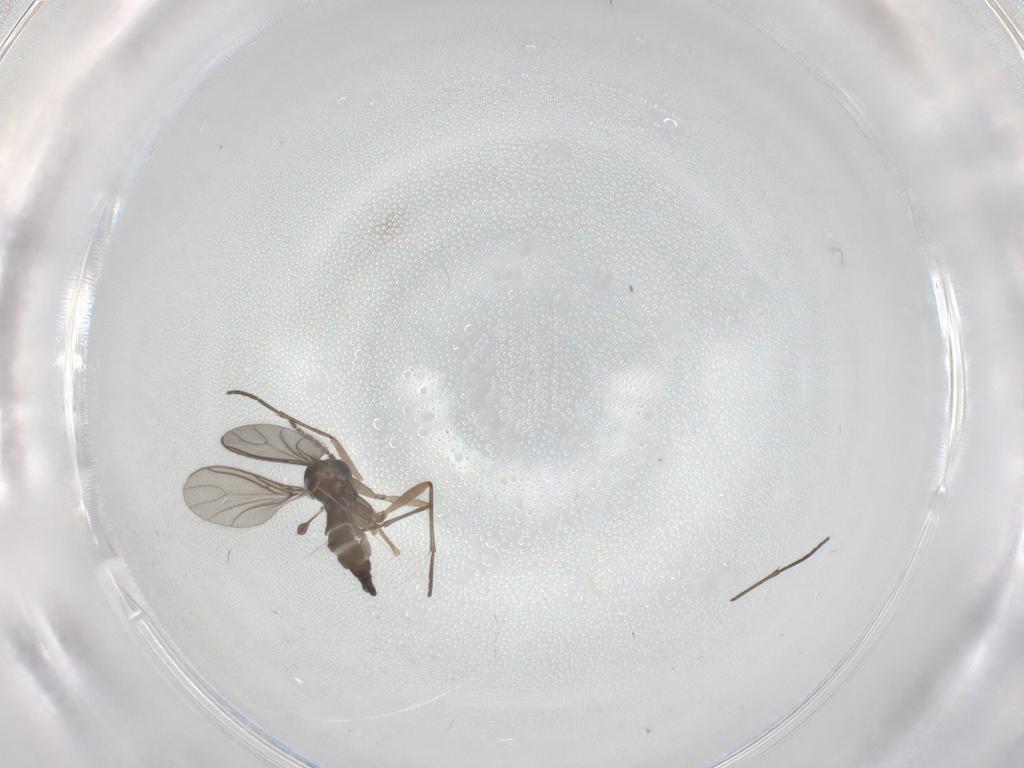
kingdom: Animalia
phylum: Arthropoda
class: Insecta
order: Diptera
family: Sciaridae
